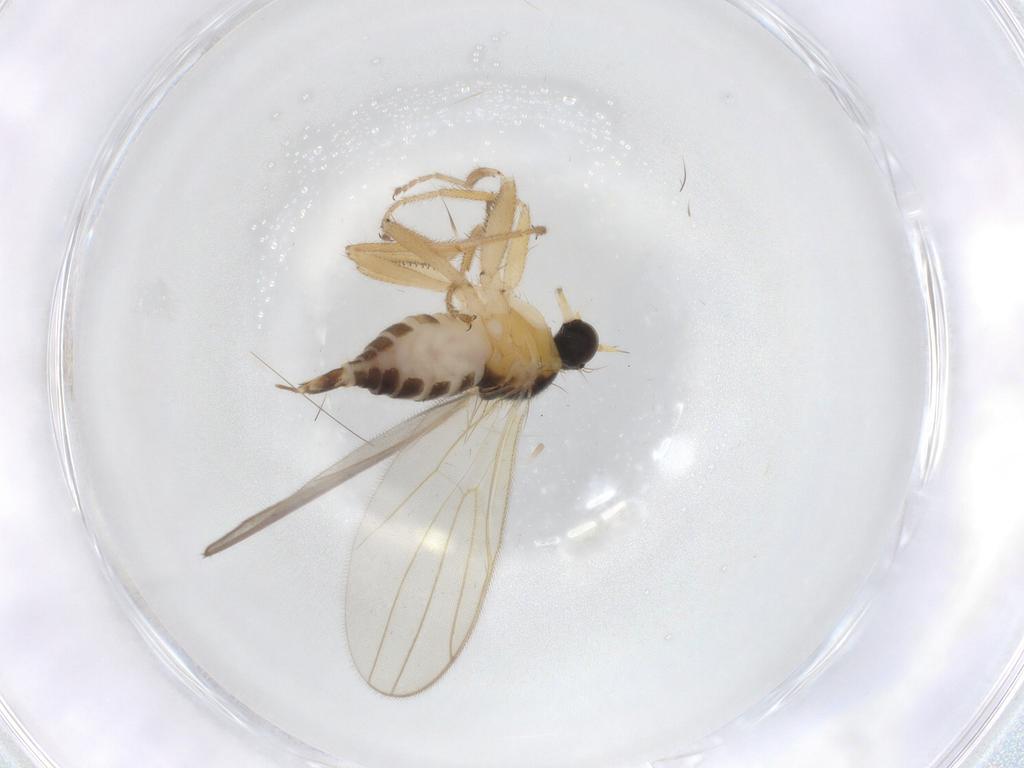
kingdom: Animalia
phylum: Arthropoda
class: Insecta
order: Diptera
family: Hybotidae
